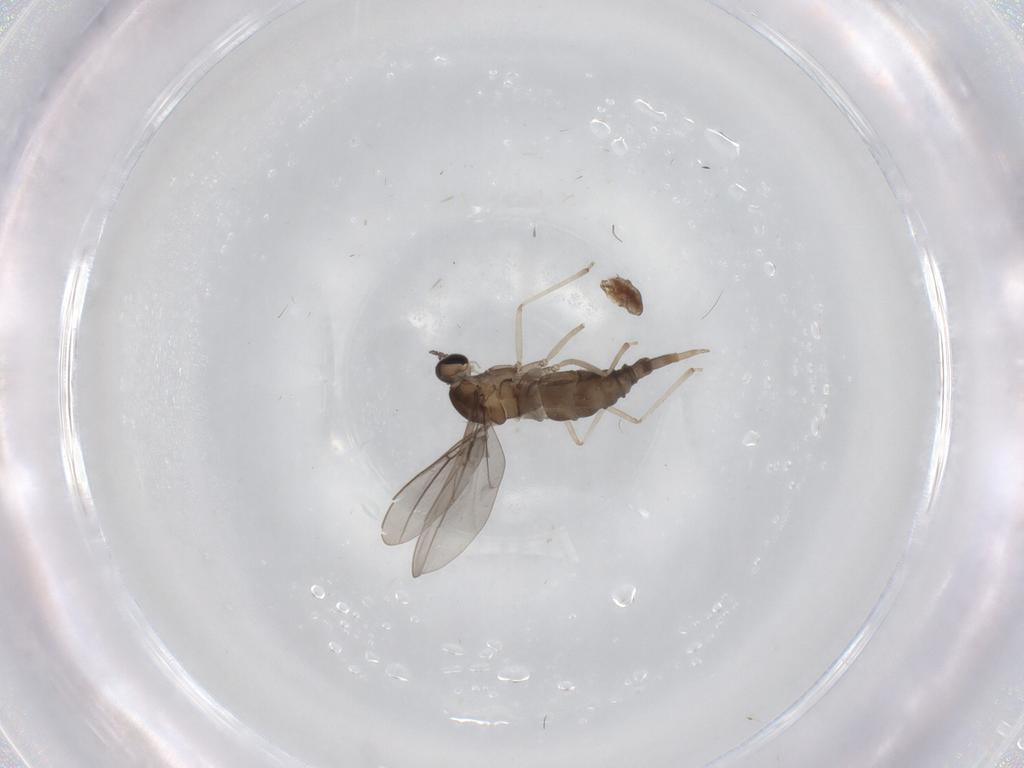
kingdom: Animalia
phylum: Arthropoda
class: Insecta
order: Diptera
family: Cecidomyiidae
